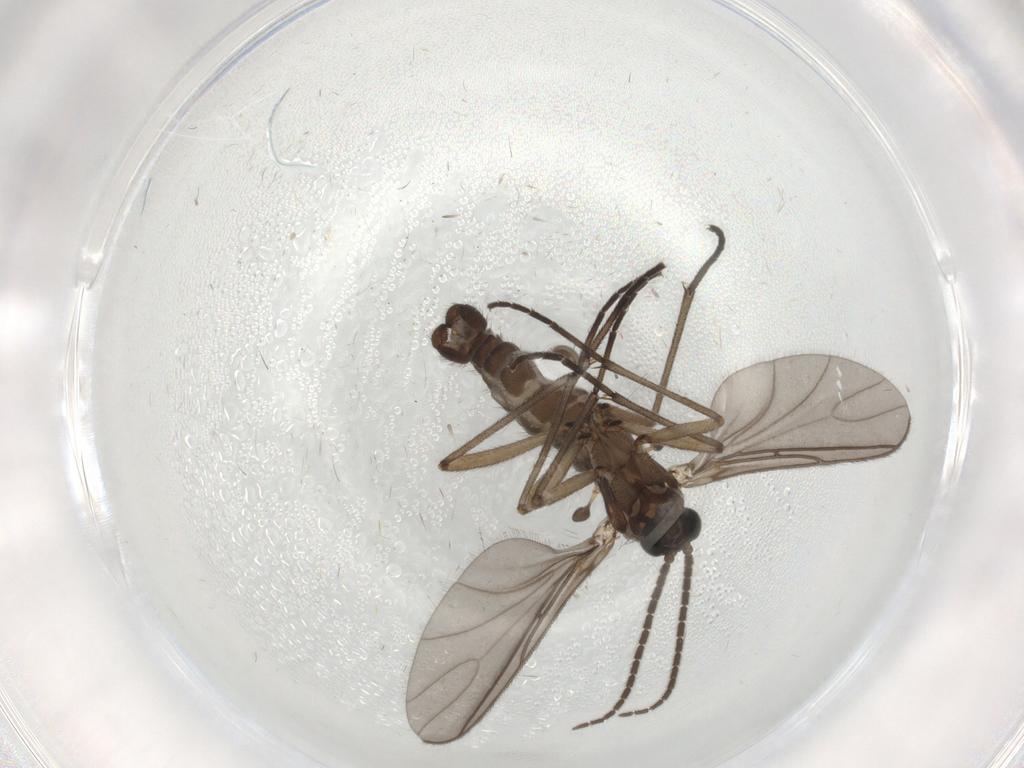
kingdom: Animalia
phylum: Arthropoda
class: Insecta
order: Diptera
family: Sciaridae
